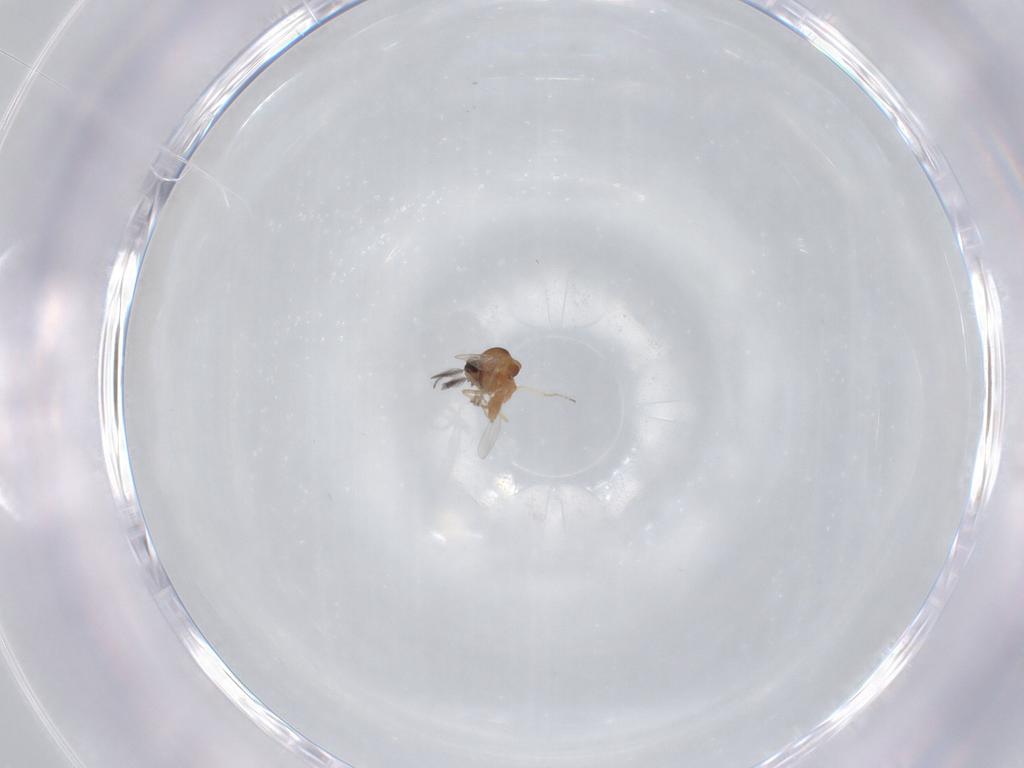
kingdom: Animalia
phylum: Arthropoda
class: Insecta
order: Diptera
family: Ceratopogonidae
